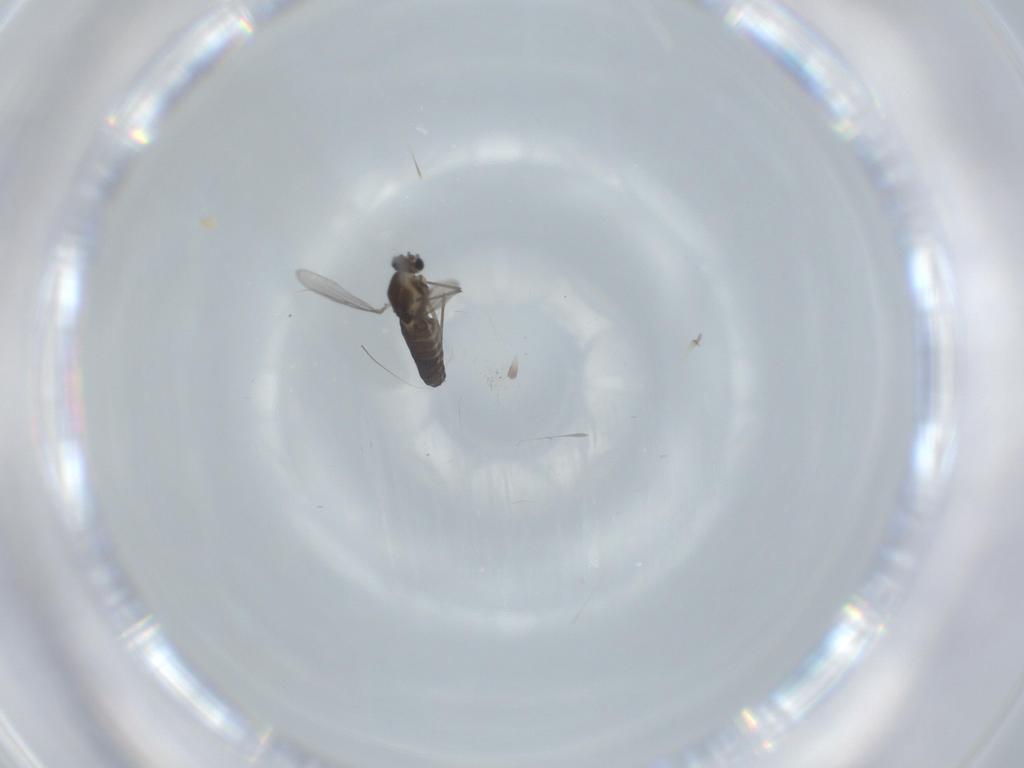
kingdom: Animalia
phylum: Arthropoda
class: Insecta
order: Diptera
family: Chironomidae
